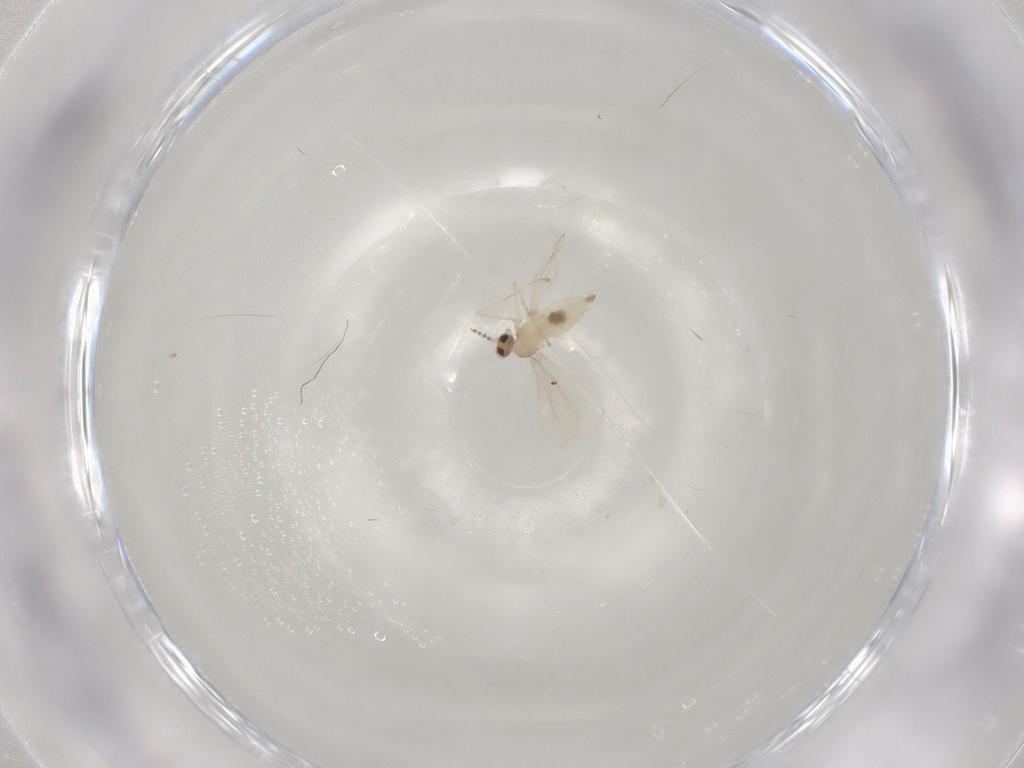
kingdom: Animalia
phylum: Arthropoda
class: Insecta
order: Diptera
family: Cecidomyiidae
